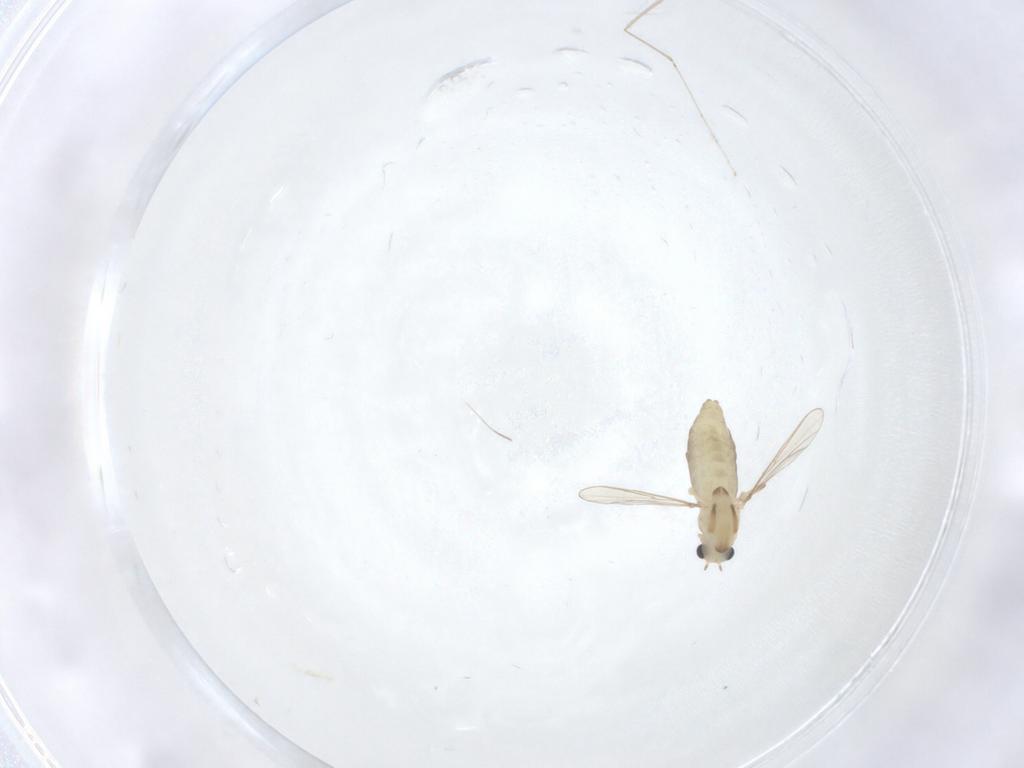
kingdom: Animalia
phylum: Arthropoda
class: Insecta
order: Diptera
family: Chironomidae
